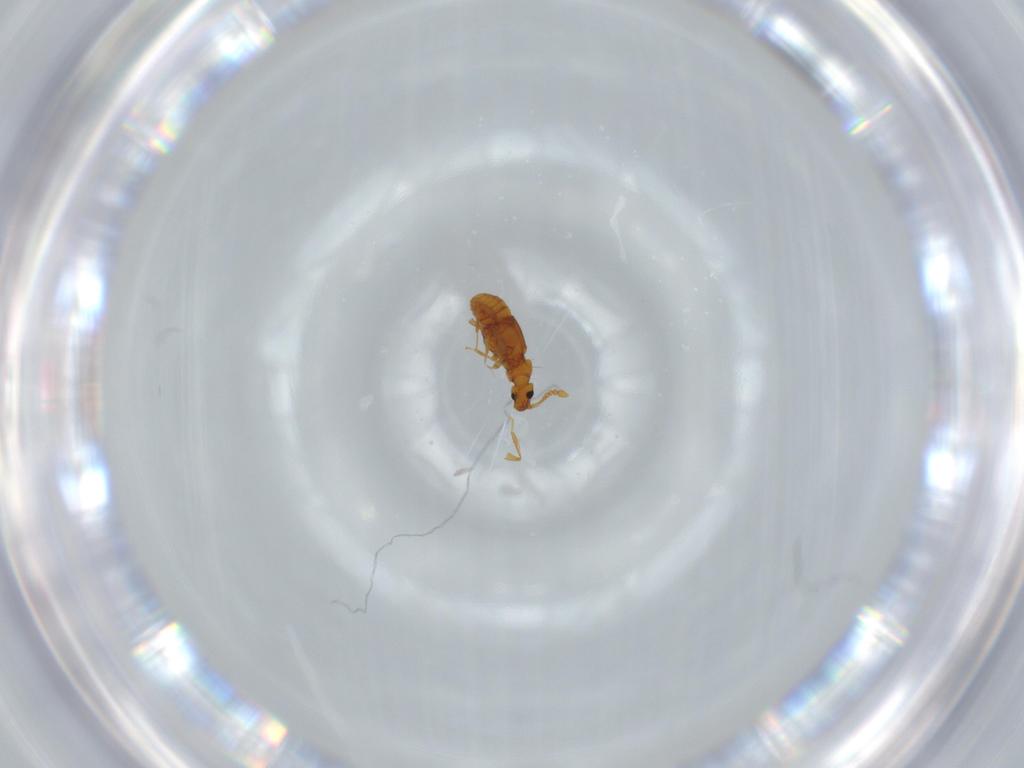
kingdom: Animalia
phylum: Arthropoda
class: Insecta
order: Coleoptera
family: Staphylinidae
